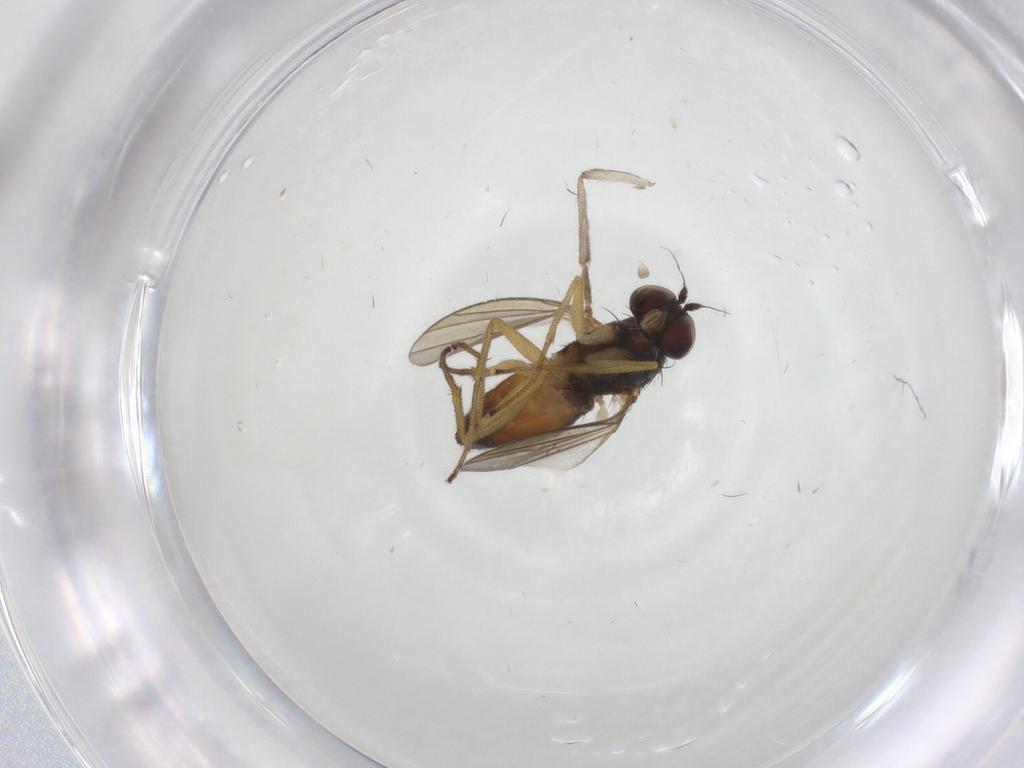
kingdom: Animalia
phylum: Arthropoda
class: Insecta
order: Diptera
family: Dolichopodidae
